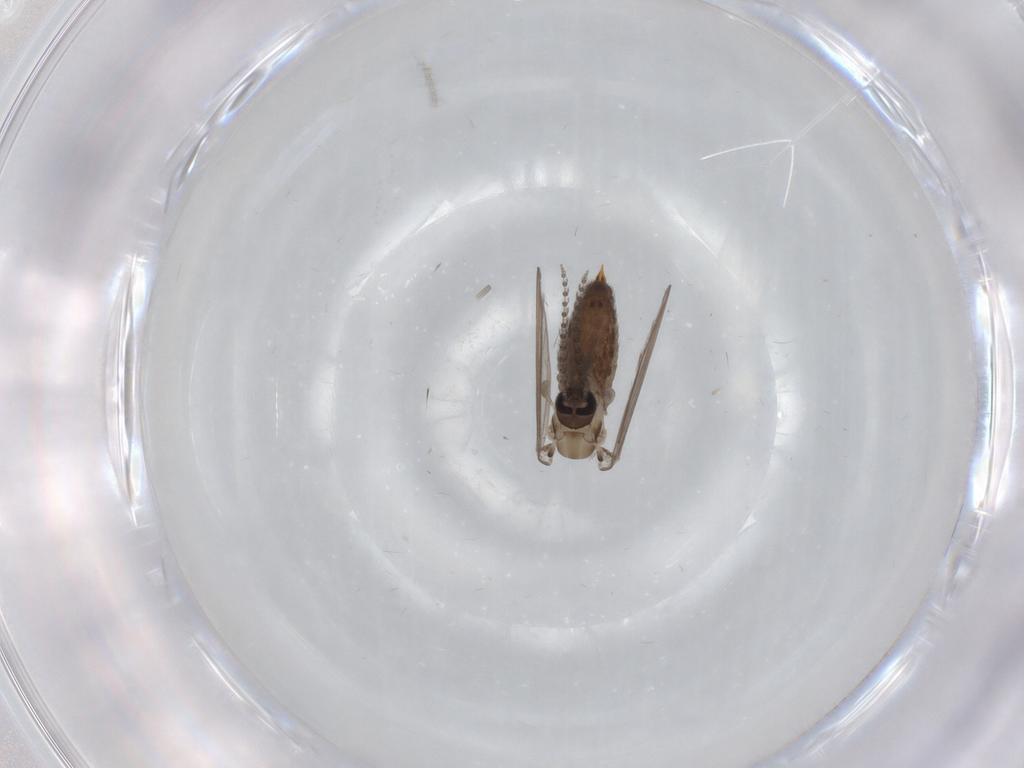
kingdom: Animalia
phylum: Arthropoda
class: Insecta
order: Diptera
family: Psychodidae
